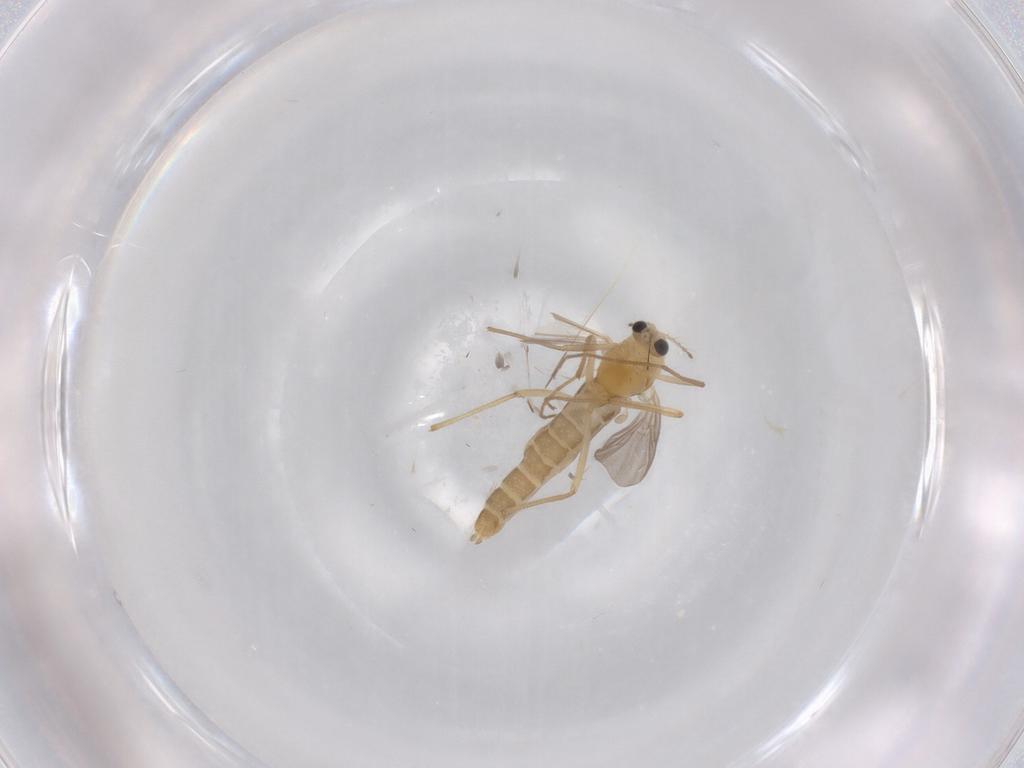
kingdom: Animalia
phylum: Arthropoda
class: Insecta
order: Diptera
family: Chironomidae
